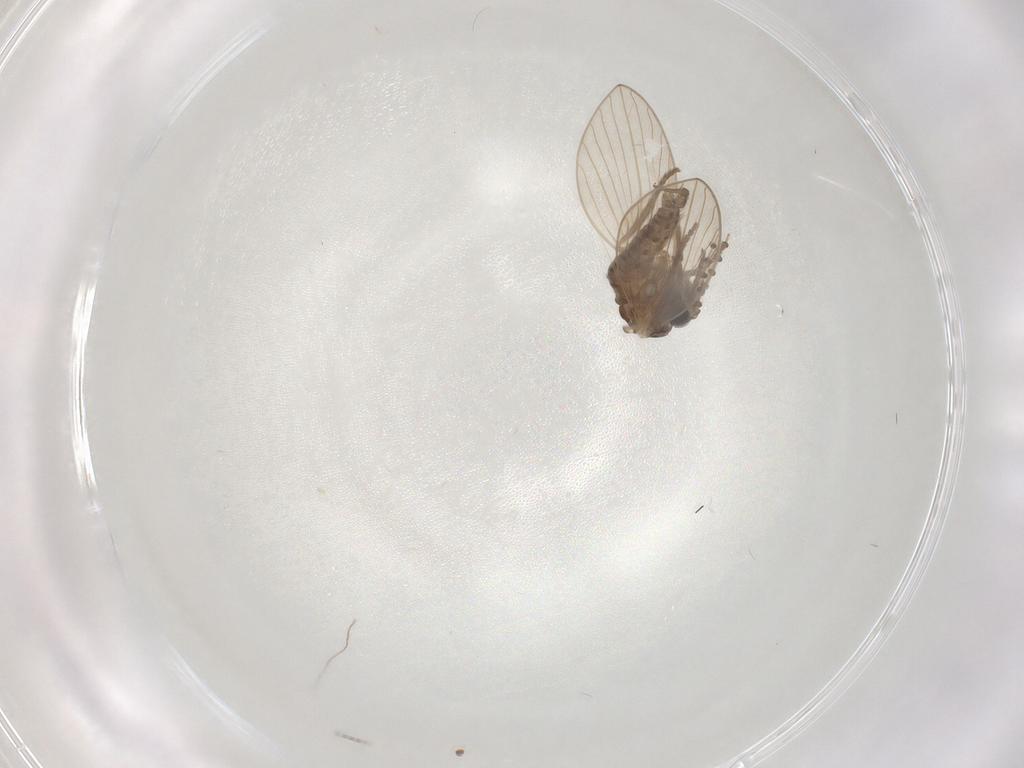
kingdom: Animalia
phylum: Arthropoda
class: Insecta
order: Diptera
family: Psychodidae
